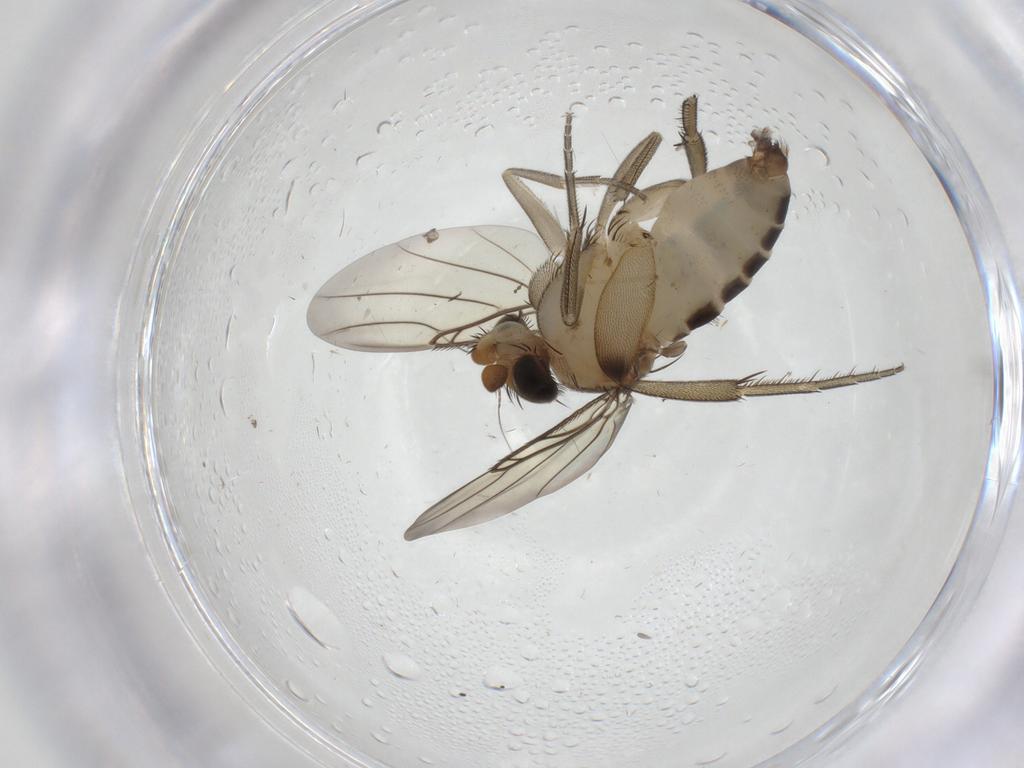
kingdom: Animalia
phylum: Arthropoda
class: Insecta
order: Diptera
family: Phoridae
